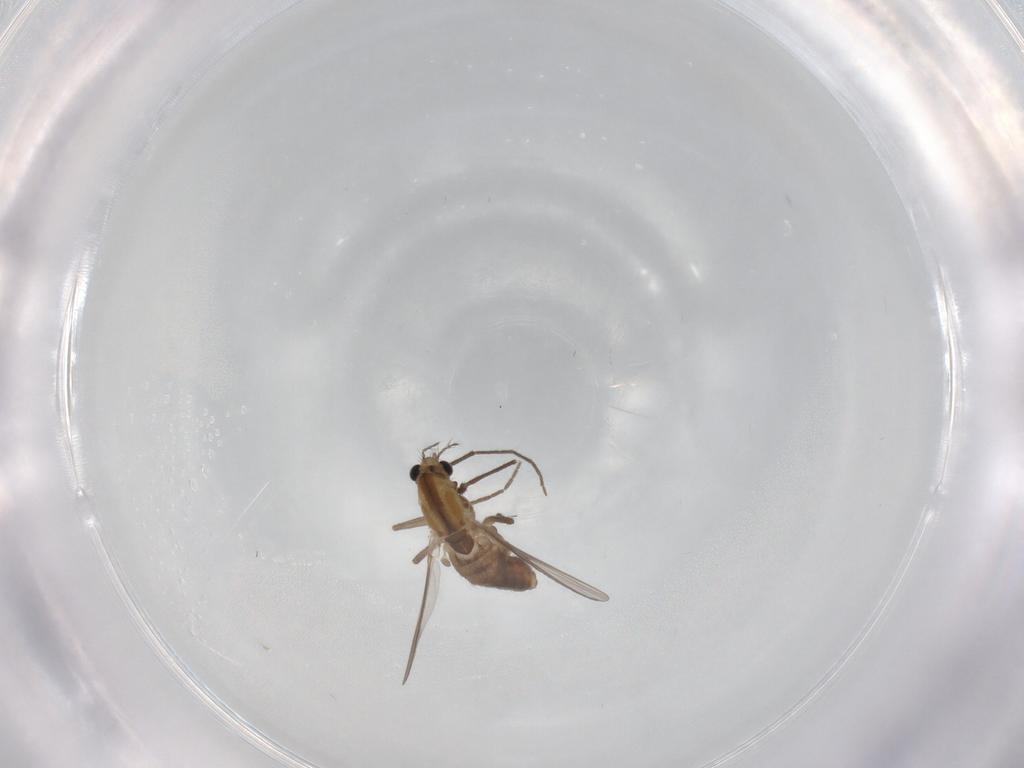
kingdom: Animalia
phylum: Arthropoda
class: Insecta
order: Diptera
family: Chironomidae
